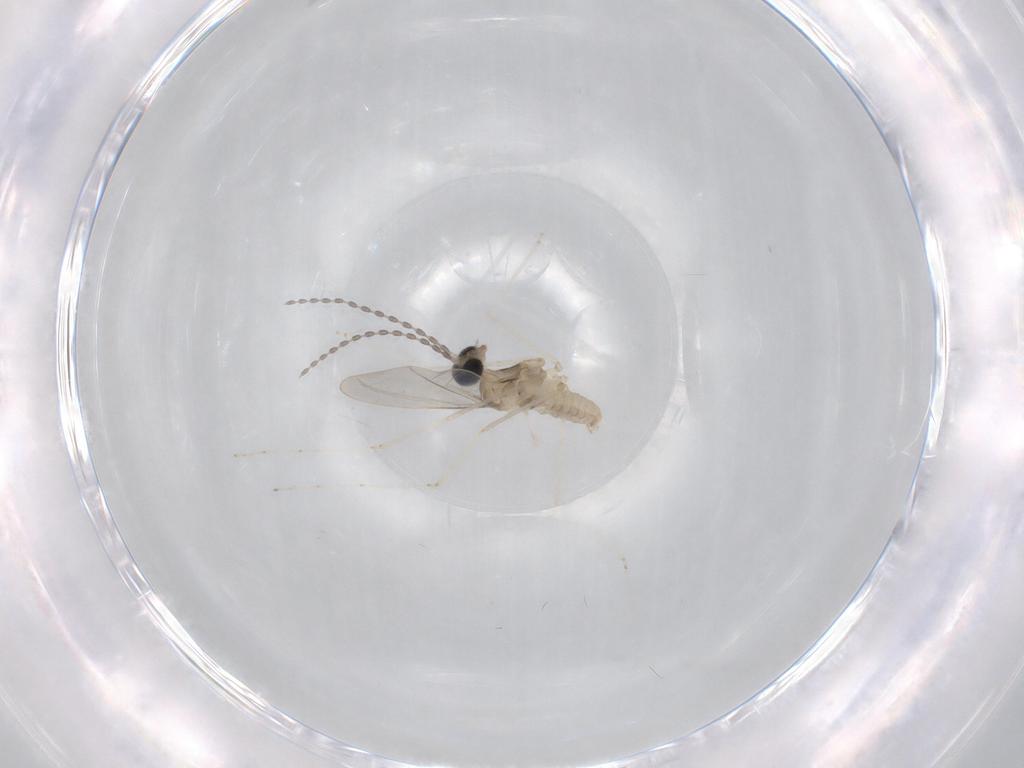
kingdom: Animalia
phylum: Arthropoda
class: Insecta
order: Diptera
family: Cecidomyiidae
